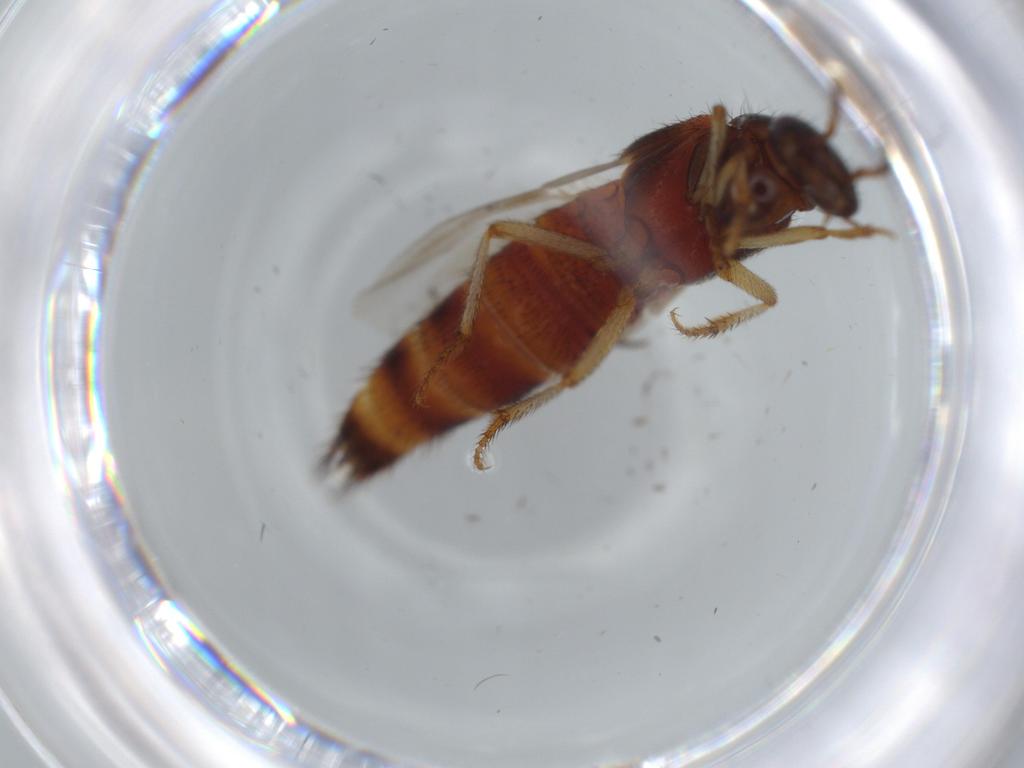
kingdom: Animalia
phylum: Arthropoda
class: Insecta
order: Coleoptera
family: Staphylinidae
